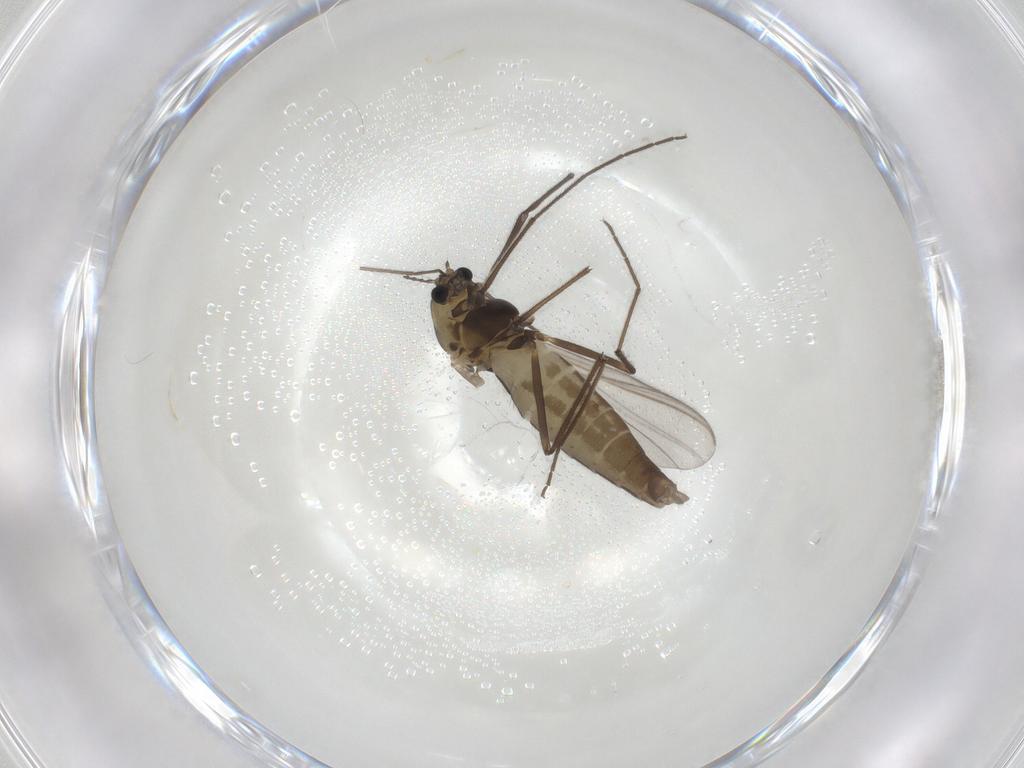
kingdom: Animalia
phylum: Arthropoda
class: Insecta
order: Diptera
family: Chironomidae
